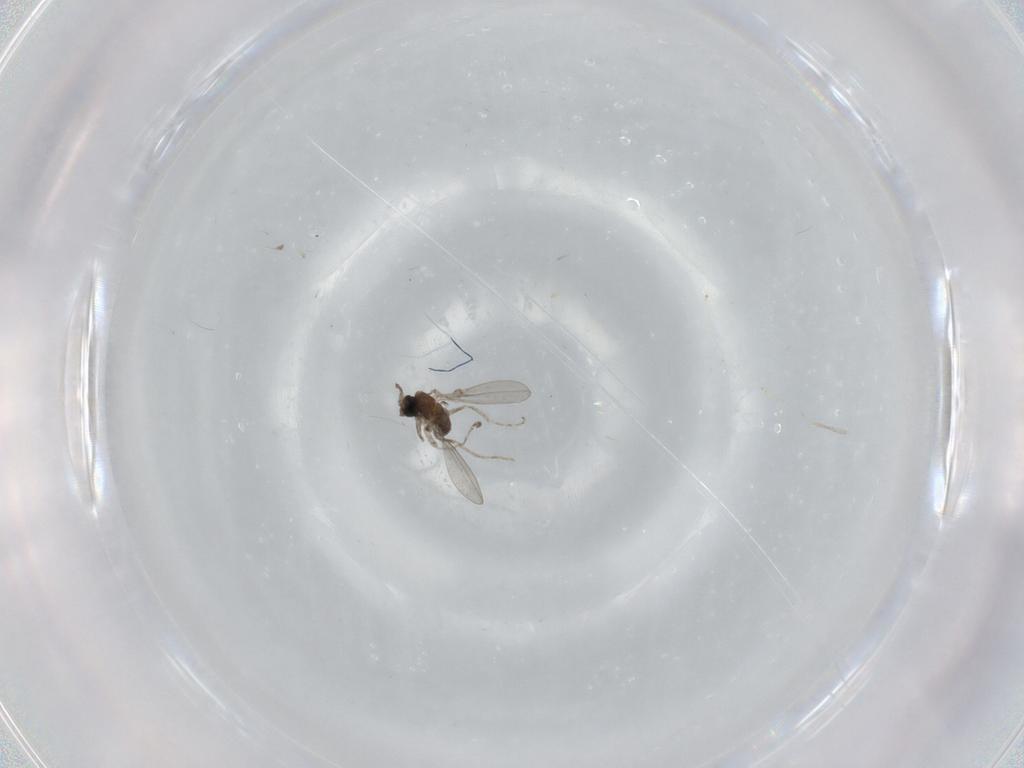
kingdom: Animalia
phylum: Arthropoda
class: Insecta
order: Diptera
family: Cecidomyiidae
